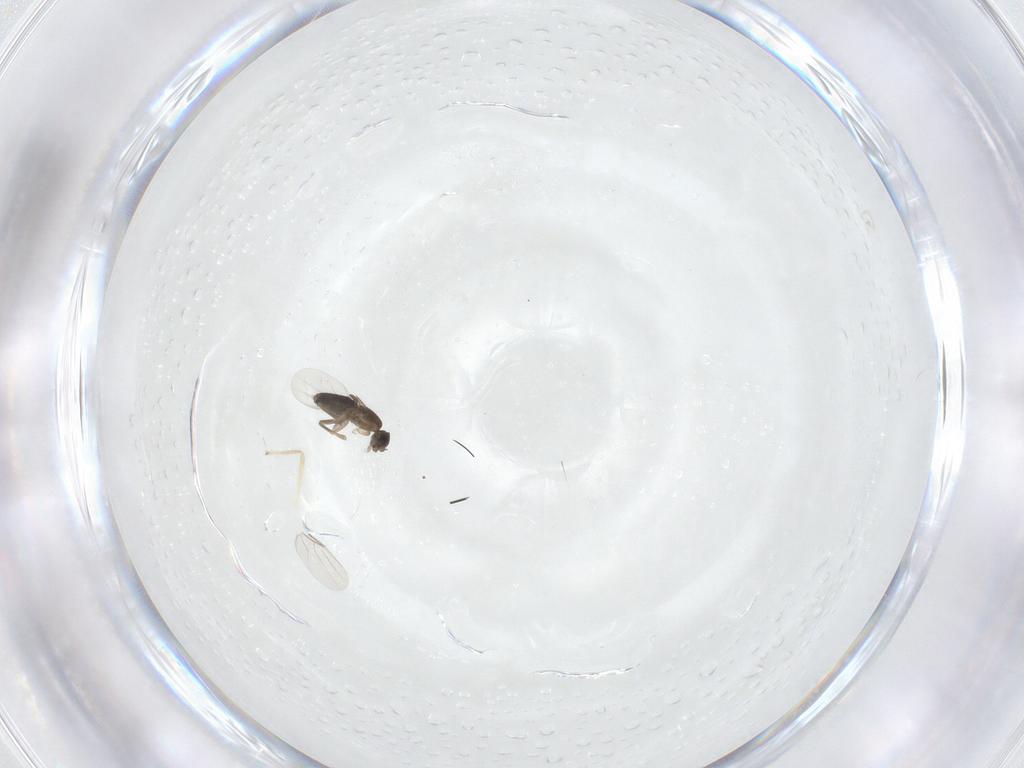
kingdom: Animalia
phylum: Arthropoda
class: Insecta
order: Diptera
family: Phoridae
